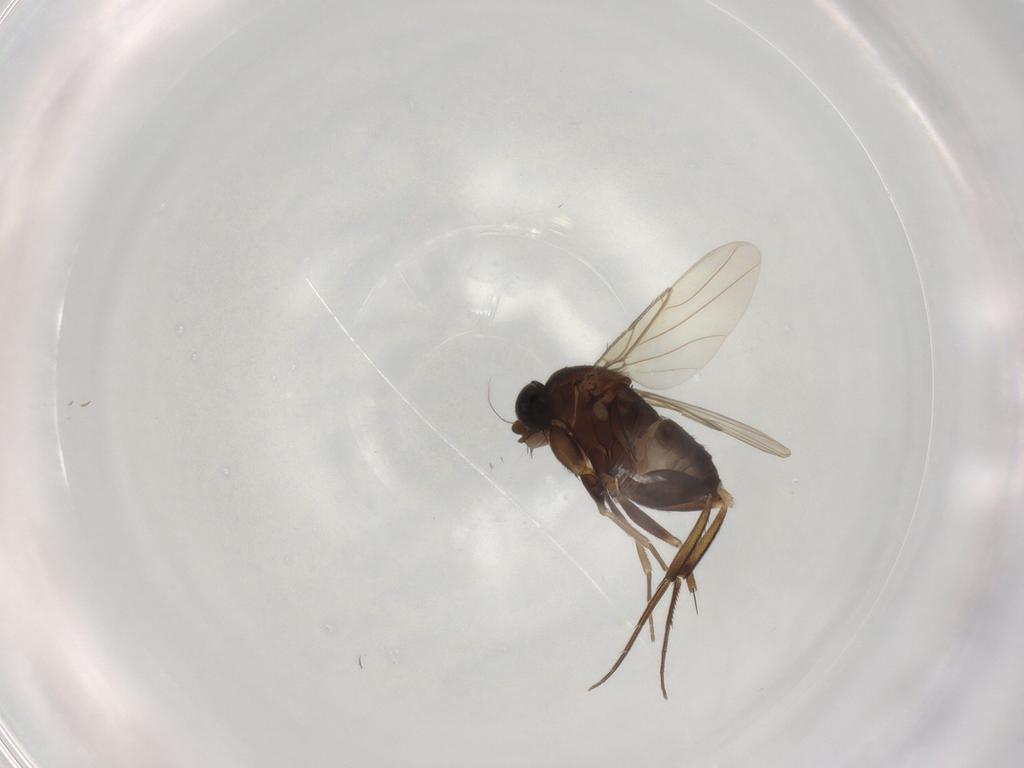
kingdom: Animalia
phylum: Arthropoda
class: Insecta
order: Diptera
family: Phoridae
